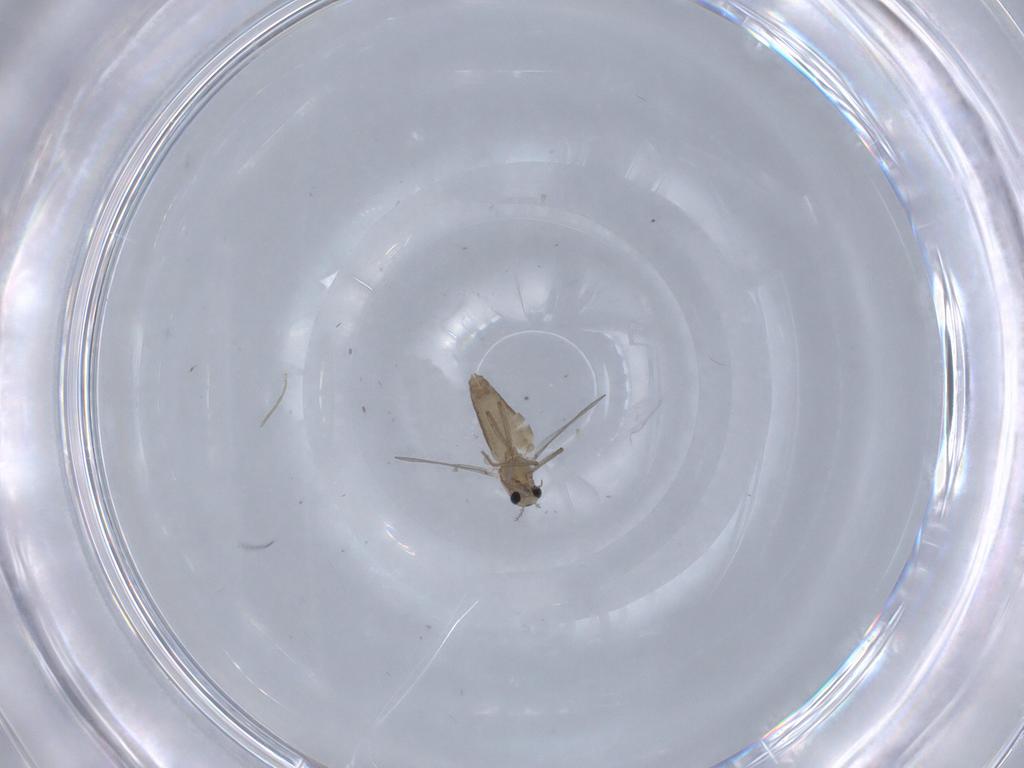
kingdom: Animalia
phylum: Arthropoda
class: Insecta
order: Diptera
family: Chironomidae
